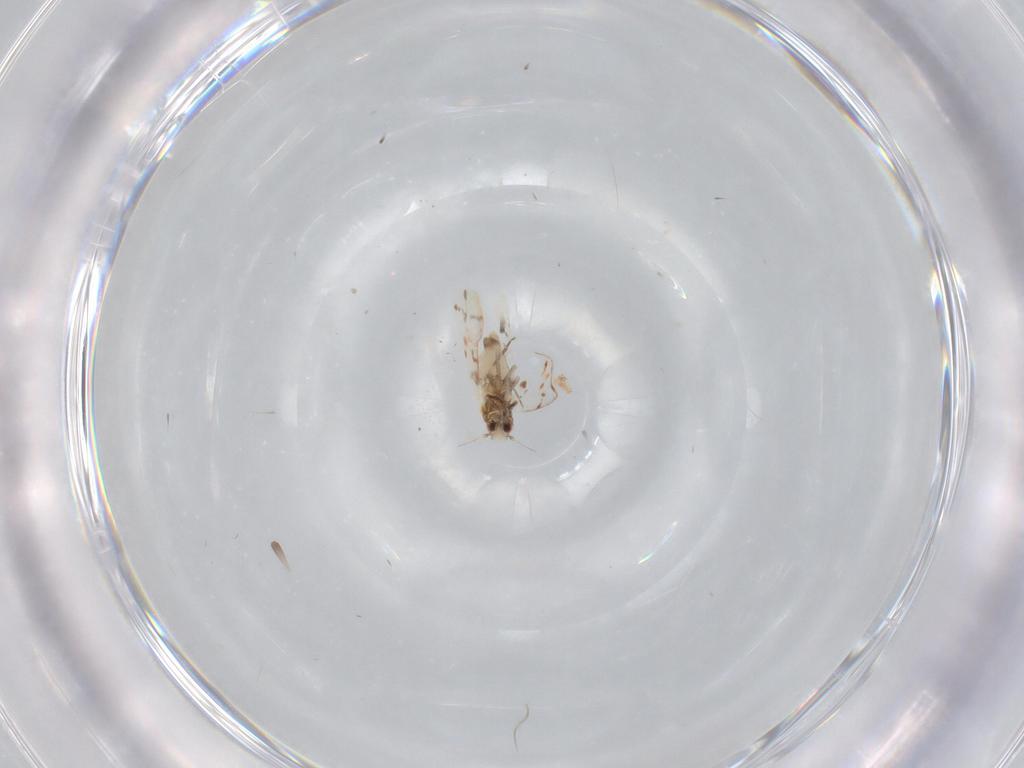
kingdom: Animalia
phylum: Arthropoda
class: Insecta
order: Hemiptera
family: Aleyrodidae
